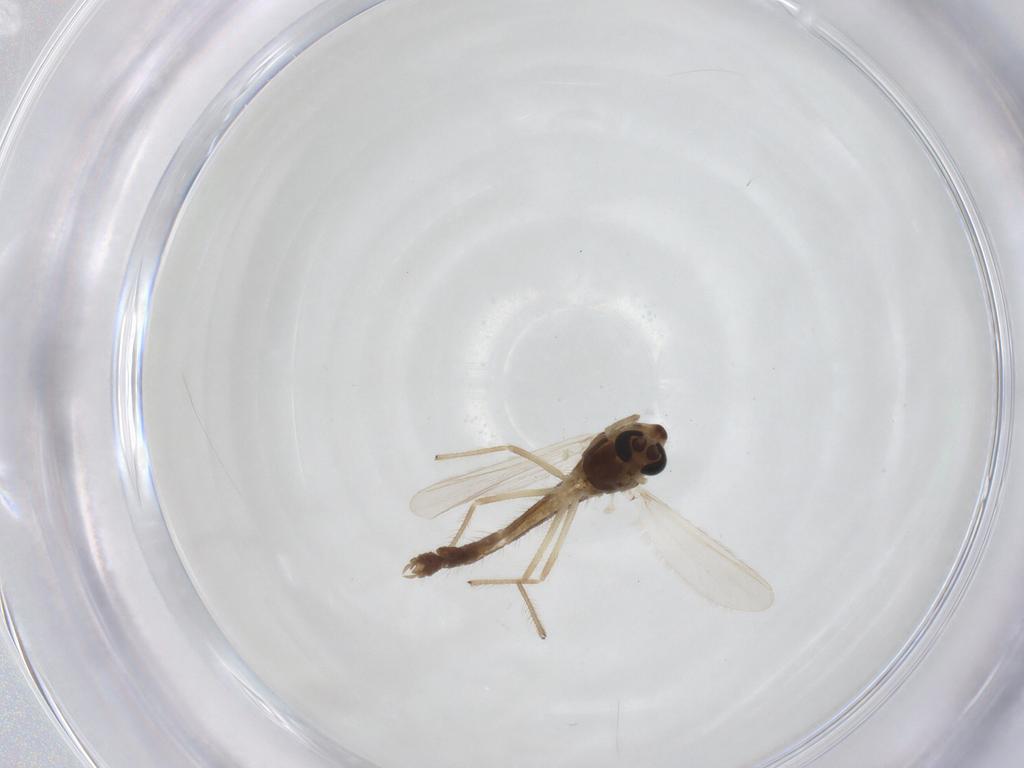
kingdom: Animalia
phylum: Arthropoda
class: Insecta
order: Diptera
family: Chironomidae
